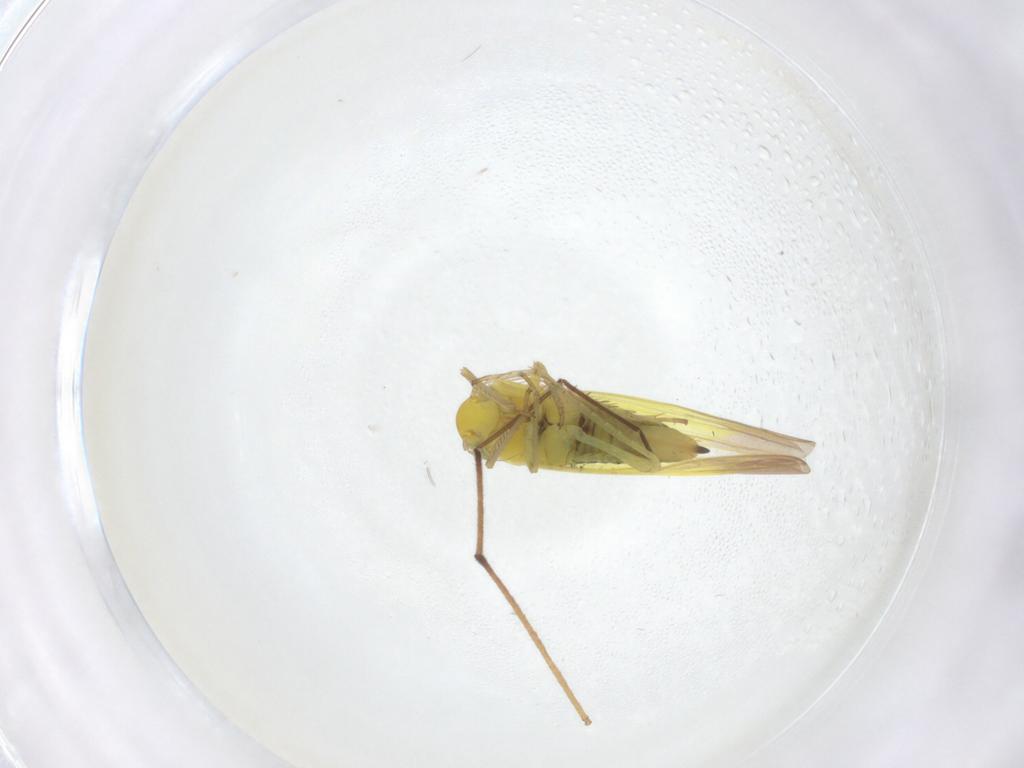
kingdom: Animalia
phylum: Arthropoda
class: Insecta
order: Hemiptera
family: Cicadellidae
